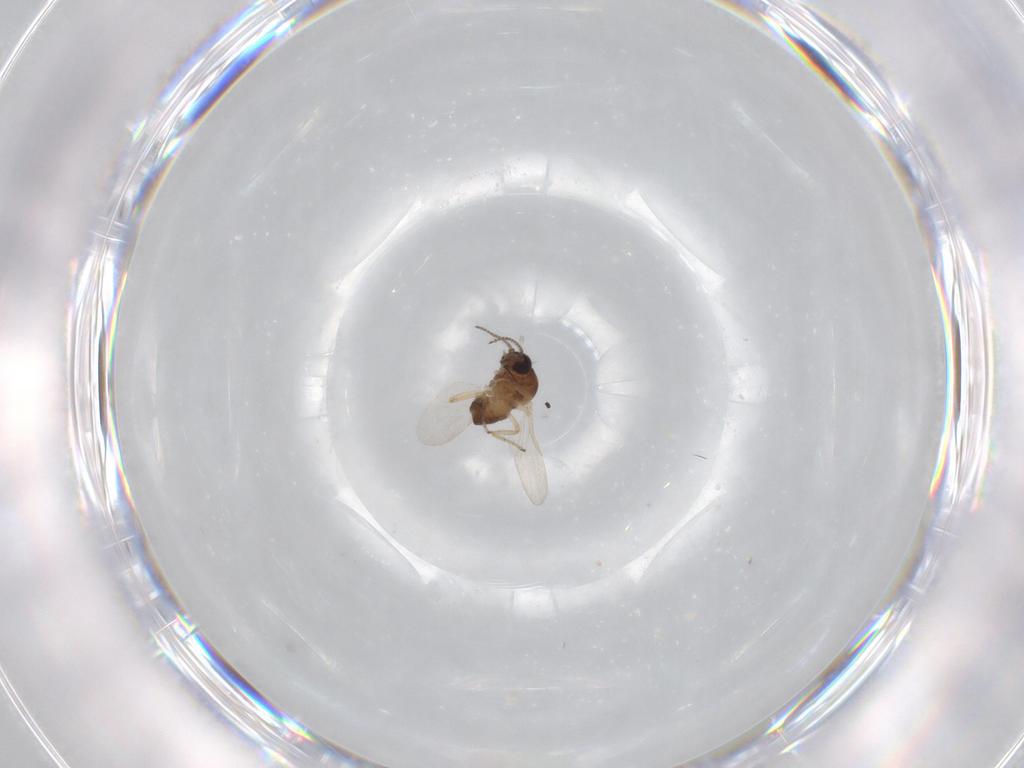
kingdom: Animalia
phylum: Arthropoda
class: Insecta
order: Diptera
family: Ceratopogonidae
